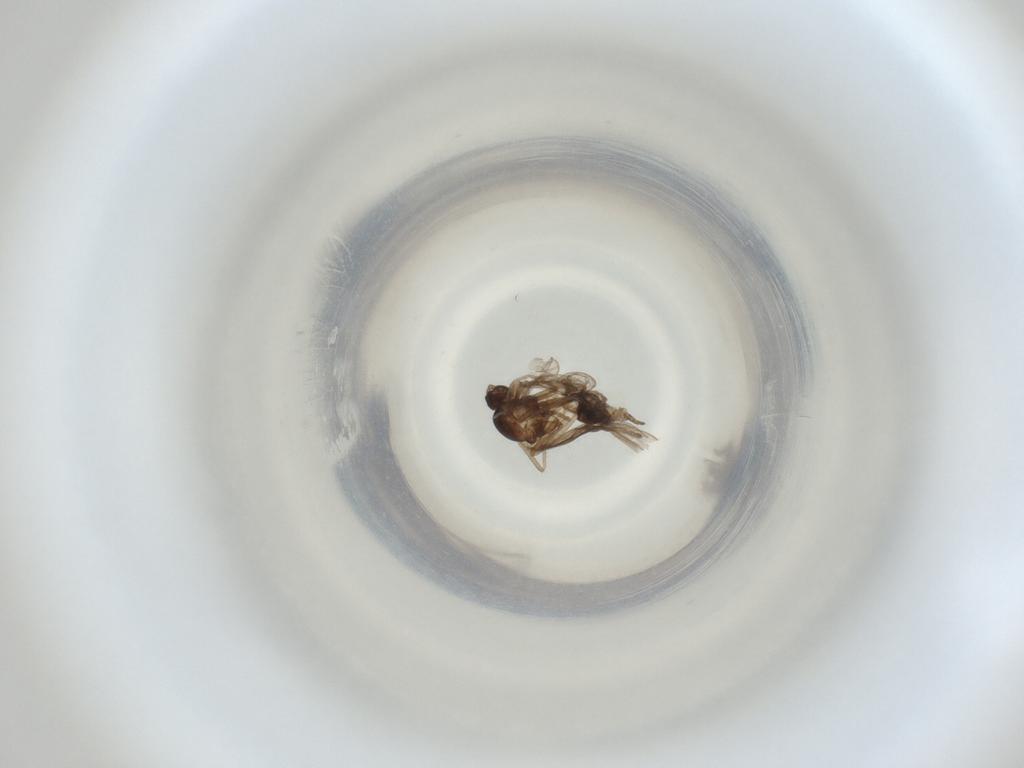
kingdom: Animalia
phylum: Arthropoda
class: Insecta
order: Diptera
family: Cecidomyiidae
